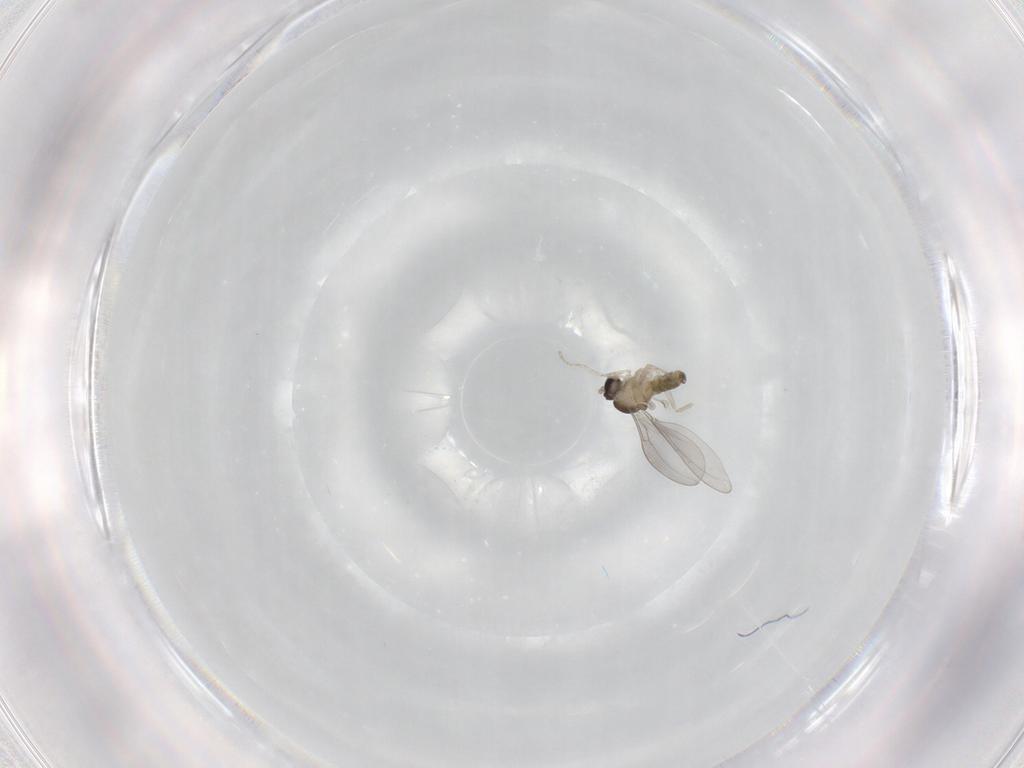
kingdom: Animalia
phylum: Arthropoda
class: Insecta
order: Diptera
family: Cecidomyiidae
